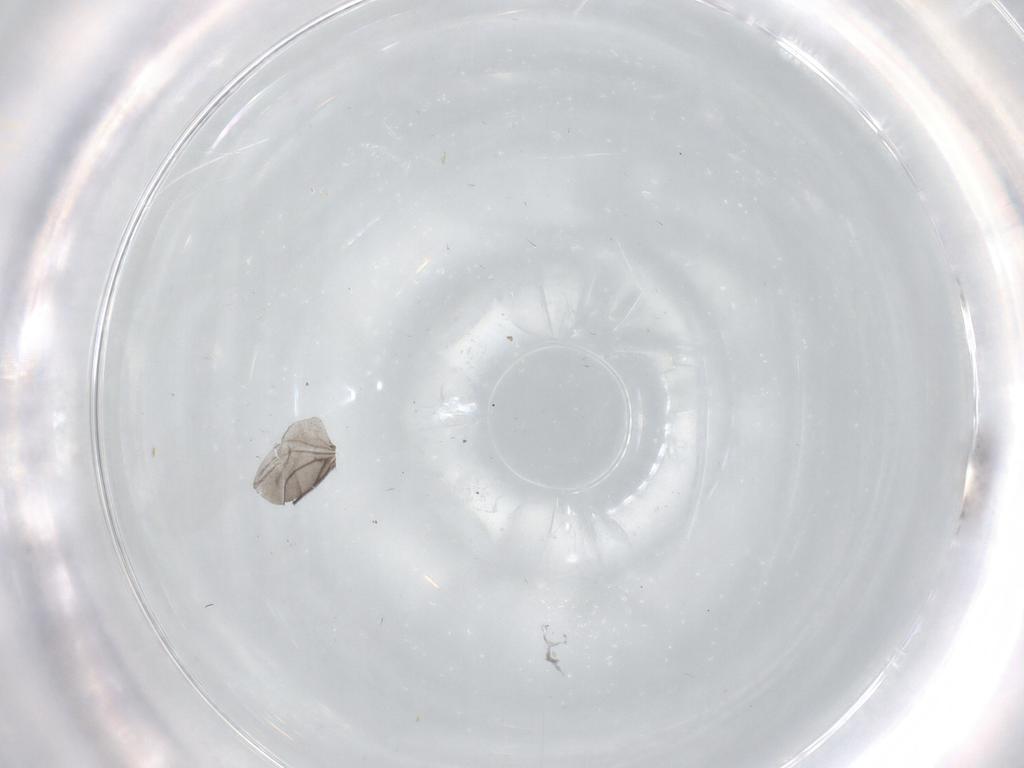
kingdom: Animalia
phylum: Arthropoda
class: Insecta
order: Diptera
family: Sphaeroceridae
